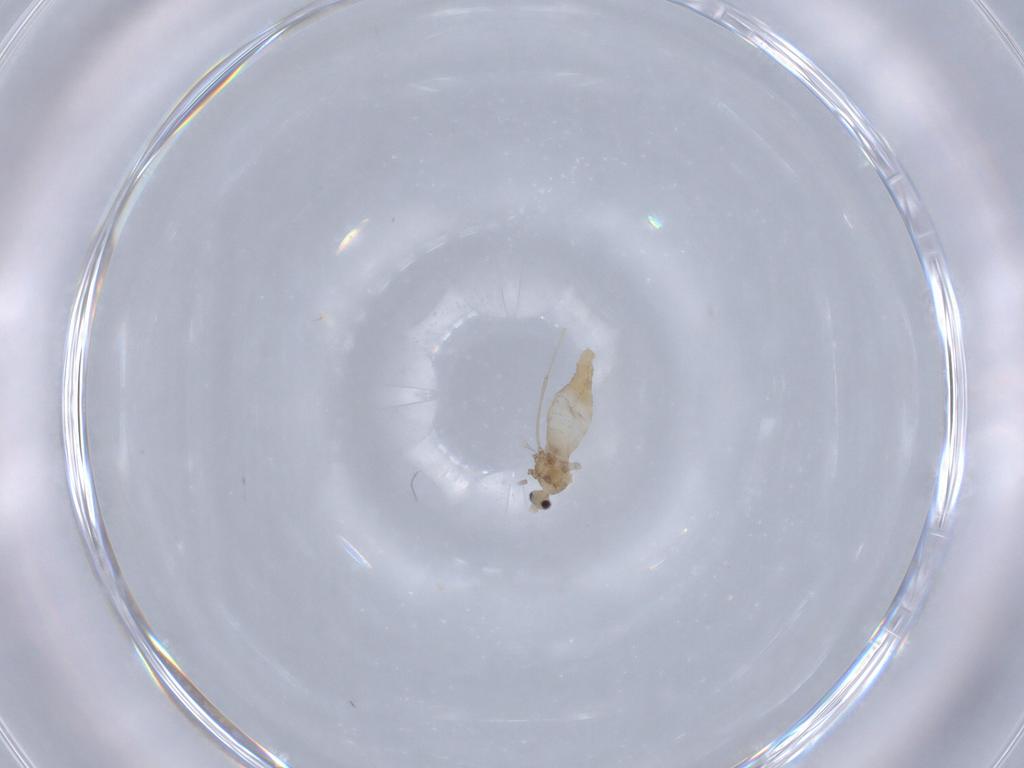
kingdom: Animalia
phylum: Arthropoda
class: Insecta
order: Diptera
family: Cecidomyiidae
